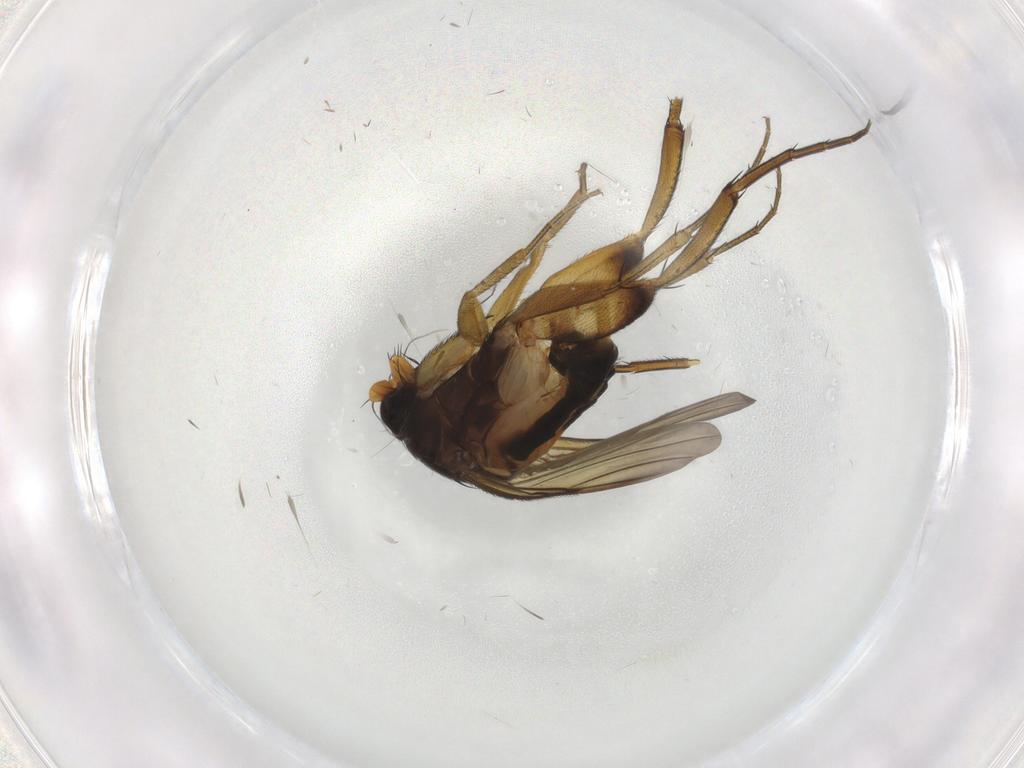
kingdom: Animalia
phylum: Arthropoda
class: Insecta
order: Diptera
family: Phoridae
